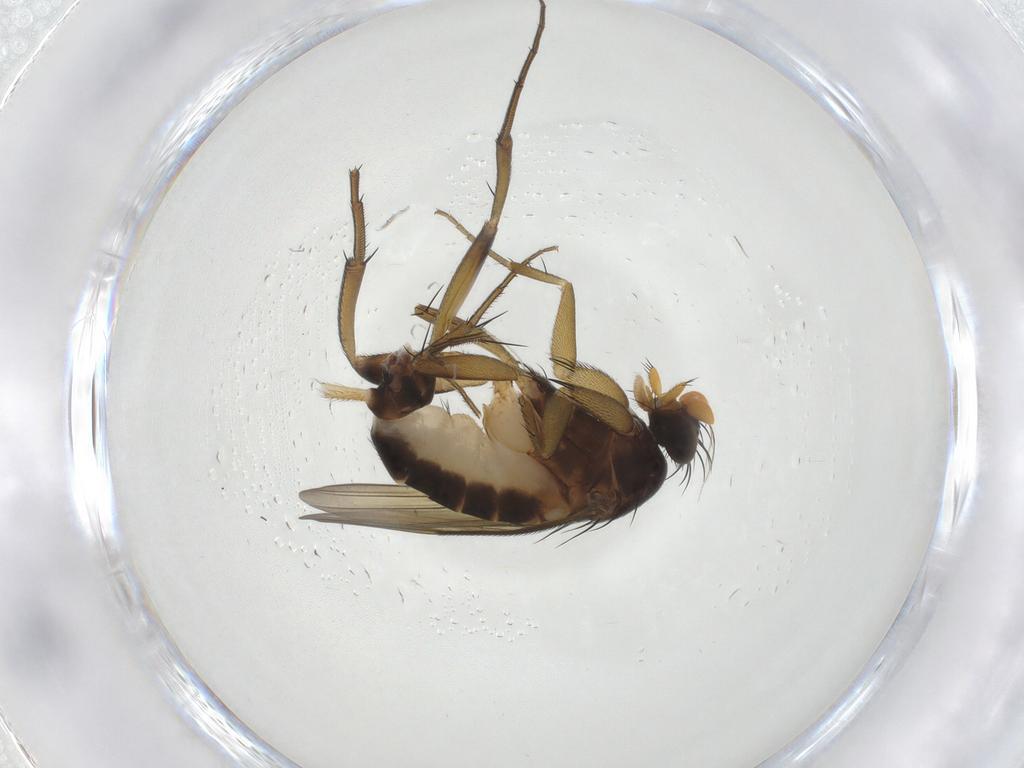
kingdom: Animalia
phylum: Arthropoda
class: Insecta
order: Diptera
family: Phoridae
